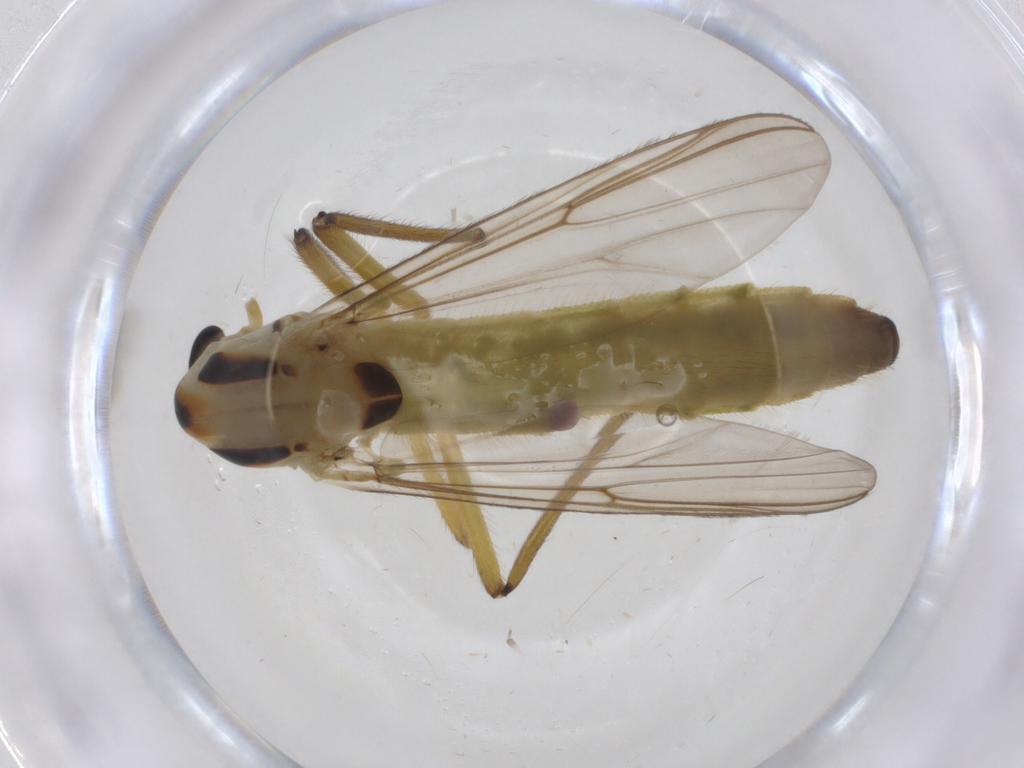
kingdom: Animalia
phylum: Arthropoda
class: Insecta
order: Diptera
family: Chironomidae
